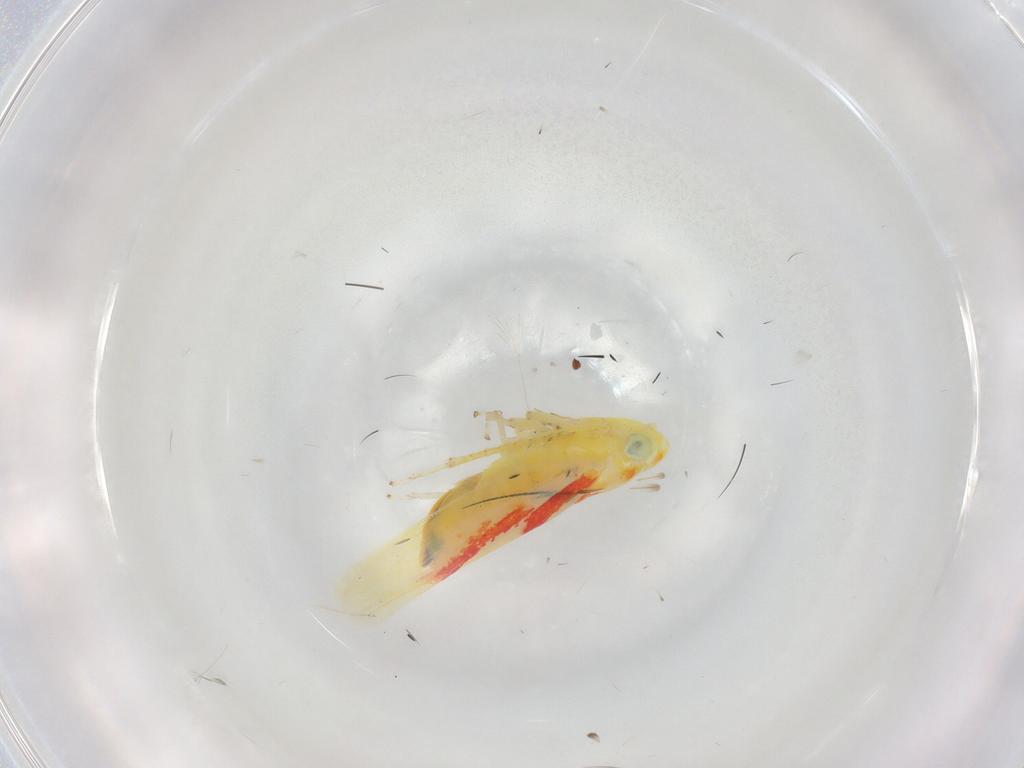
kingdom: Animalia
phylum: Arthropoda
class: Insecta
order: Hemiptera
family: Cicadellidae
